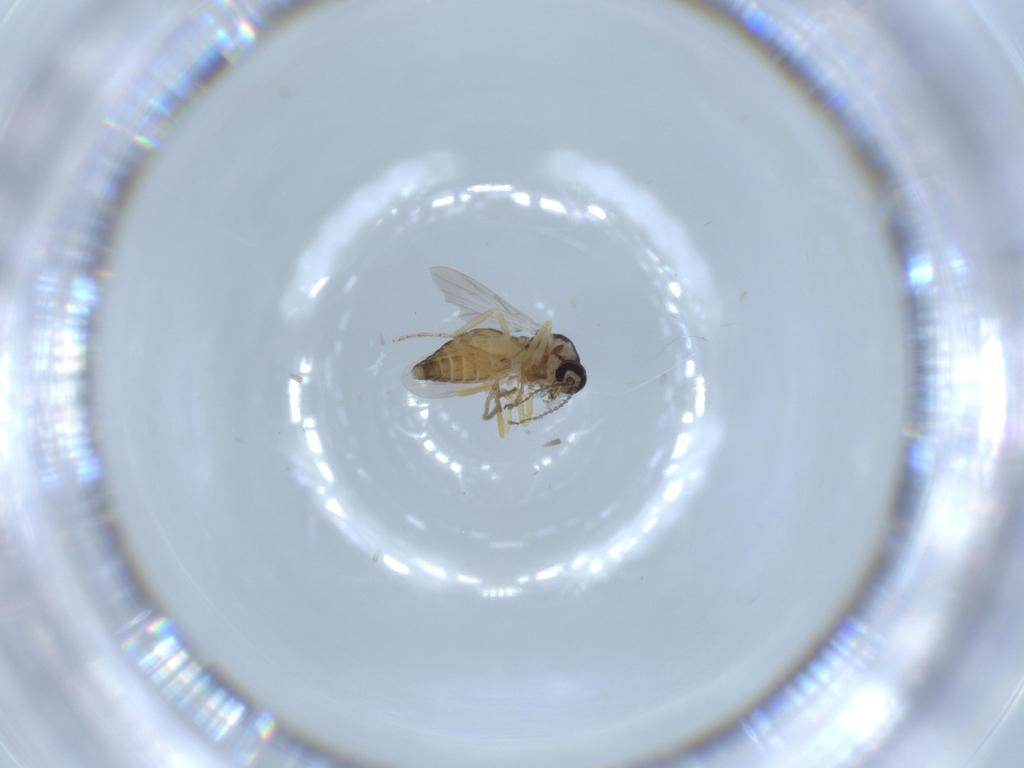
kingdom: Animalia
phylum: Arthropoda
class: Insecta
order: Diptera
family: Ceratopogonidae
